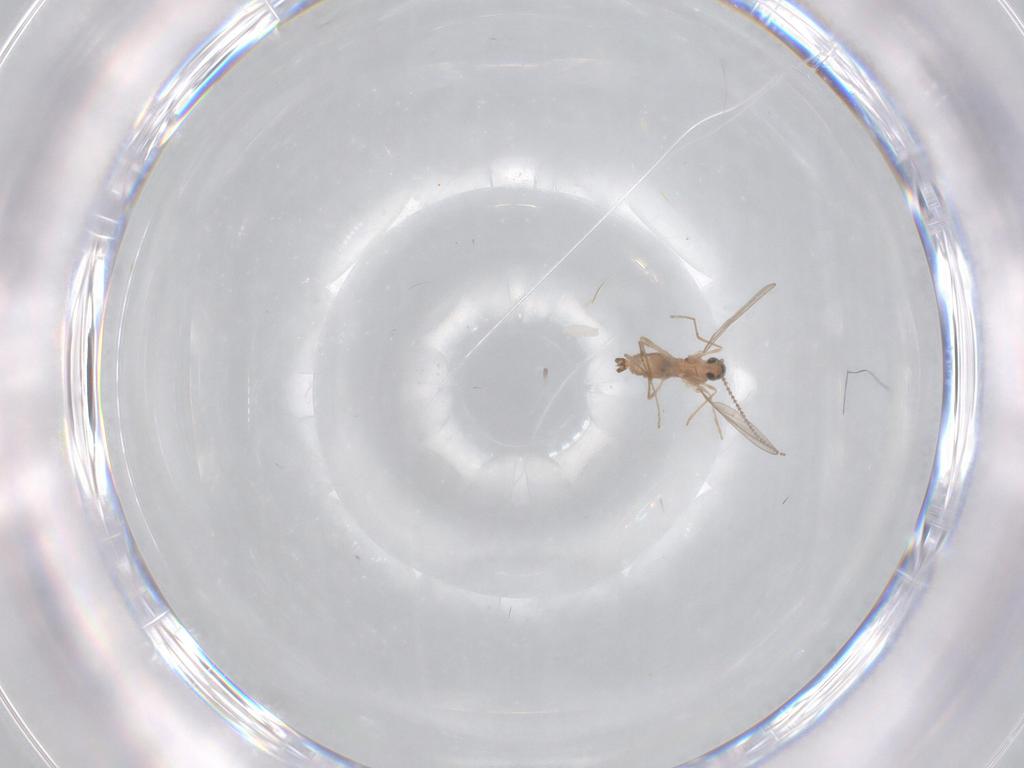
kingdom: Animalia
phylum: Arthropoda
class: Insecta
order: Diptera
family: Cecidomyiidae
